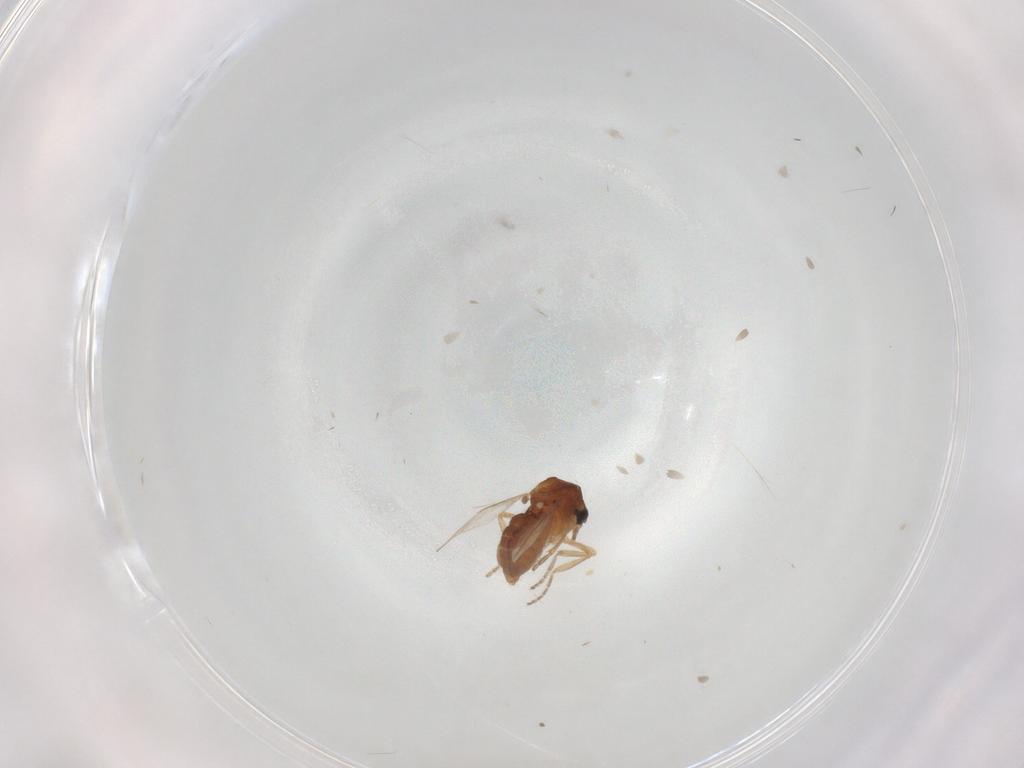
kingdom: Animalia
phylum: Arthropoda
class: Insecta
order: Diptera
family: Ceratopogonidae
